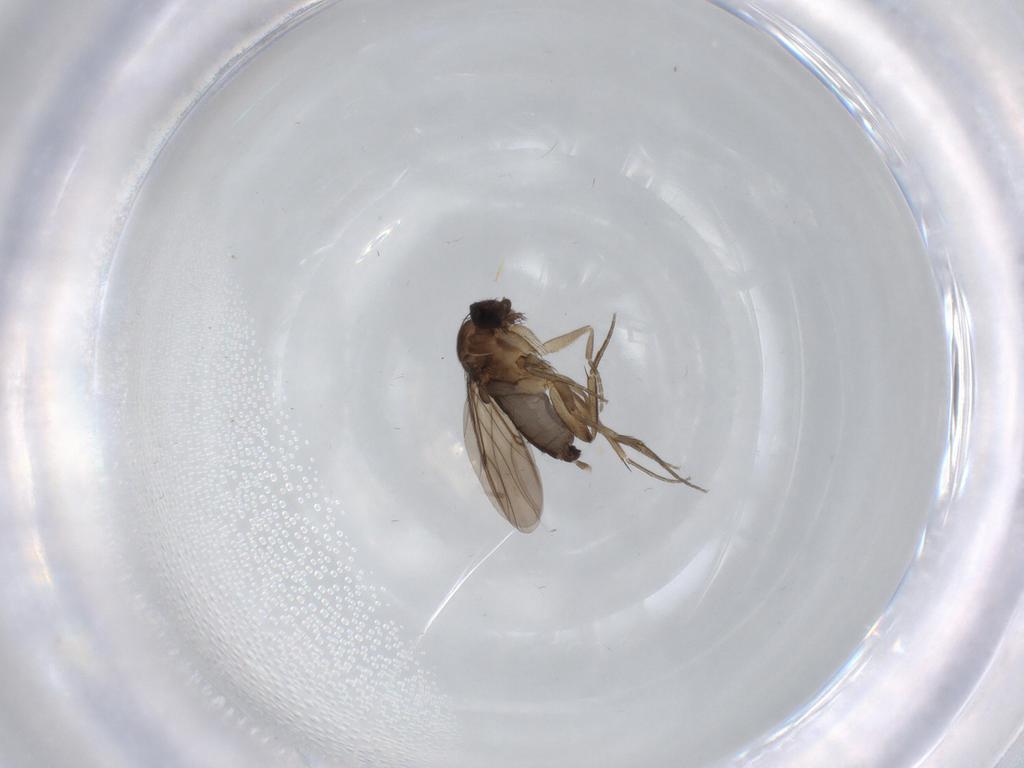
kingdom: Animalia
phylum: Arthropoda
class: Insecta
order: Diptera
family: Phoridae
